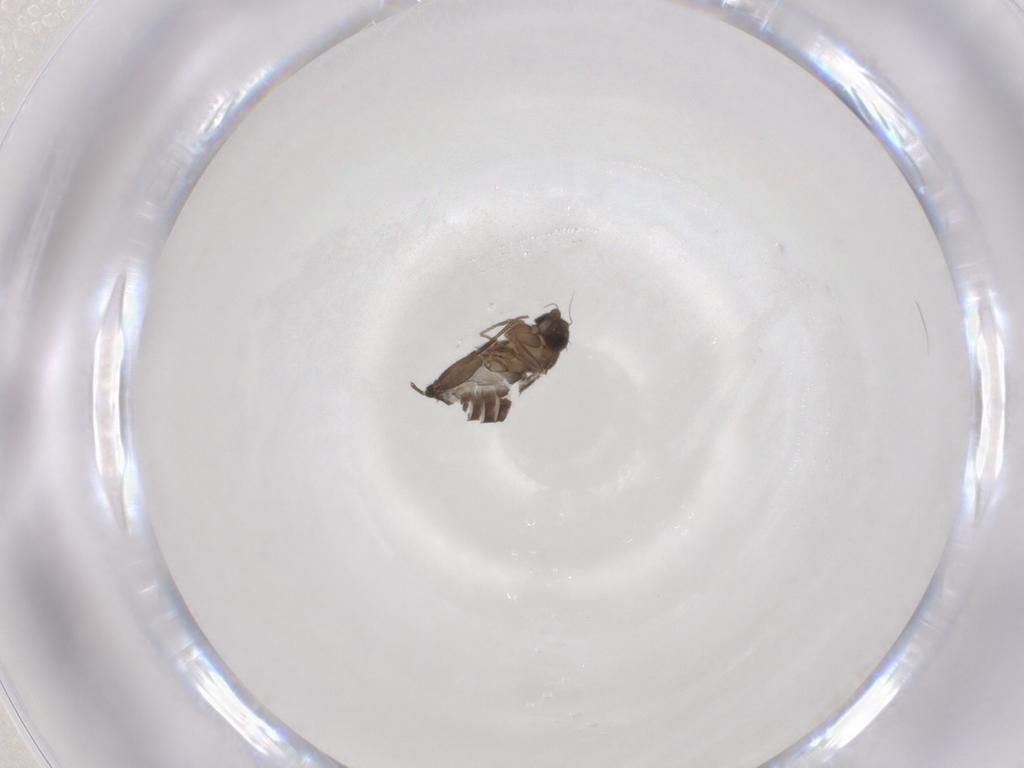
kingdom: Animalia
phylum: Arthropoda
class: Insecta
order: Diptera
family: Phoridae
